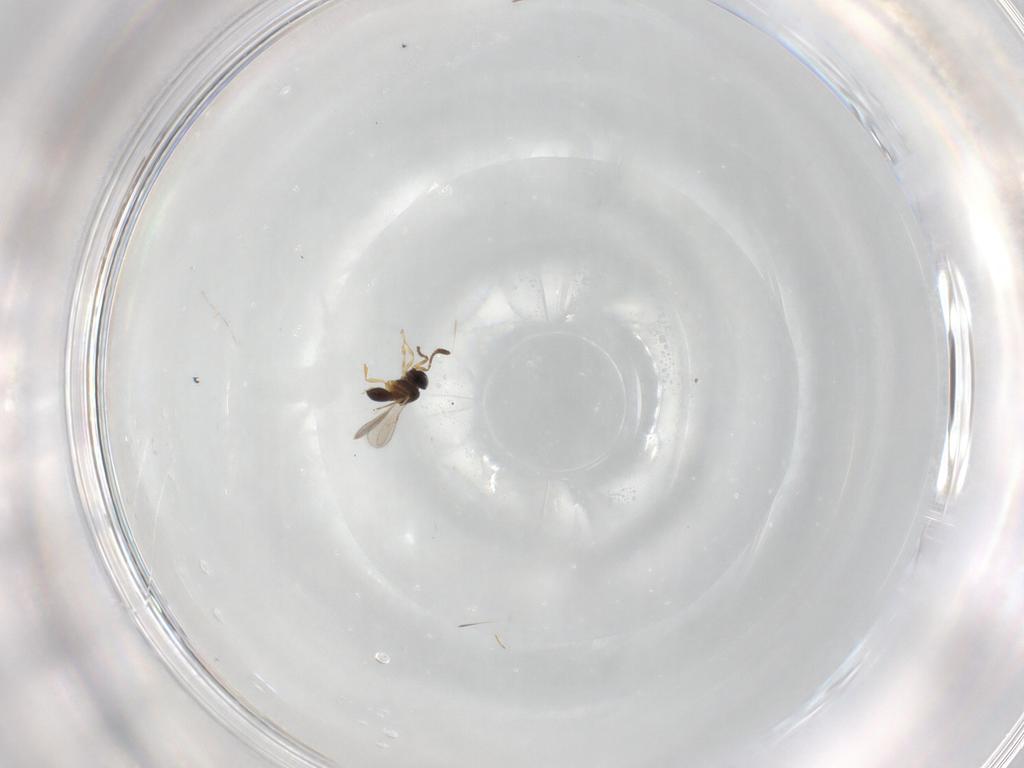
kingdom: Animalia
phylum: Arthropoda
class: Insecta
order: Hymenoptera
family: Scelionidae
